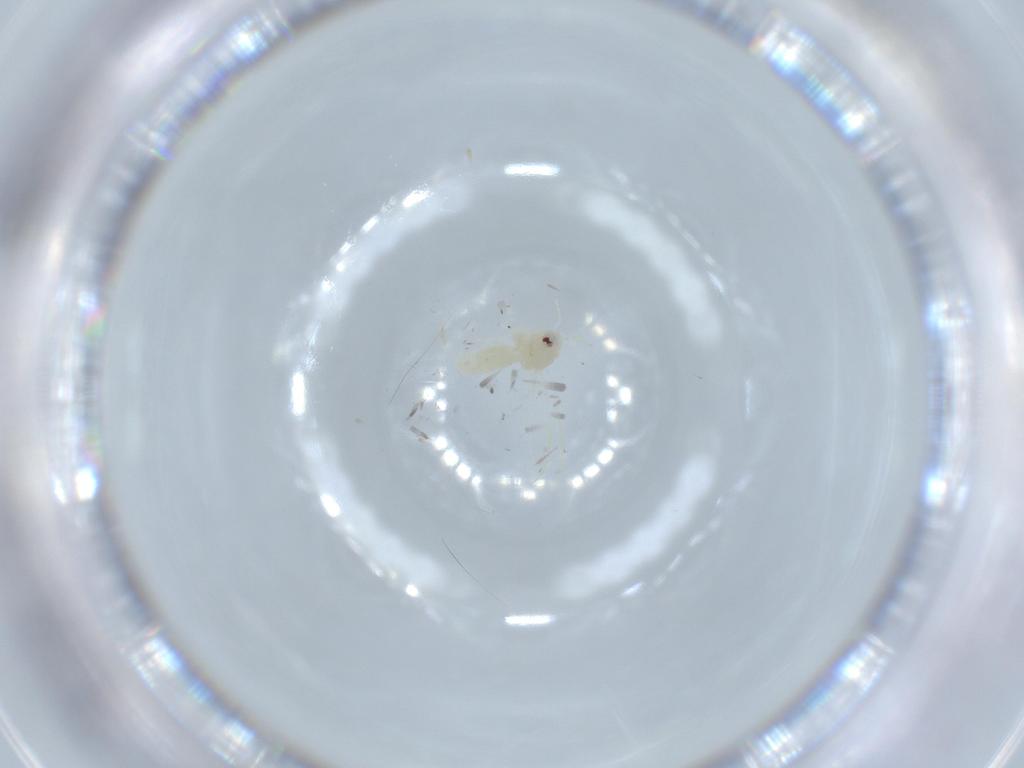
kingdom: Animalia
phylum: Arthropoda
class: Insecta
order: Hemiptera
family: Aleyrodidae
